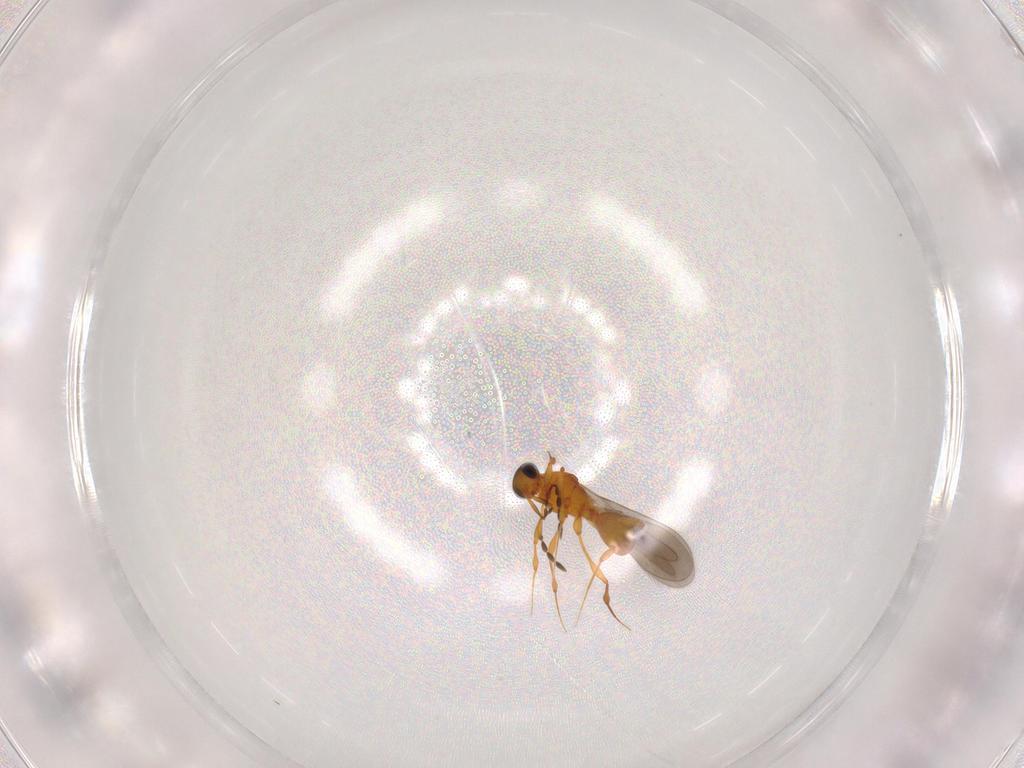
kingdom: Animalia
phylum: Arthropoda
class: Insecta
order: Hymenoptera
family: Platygastridae
